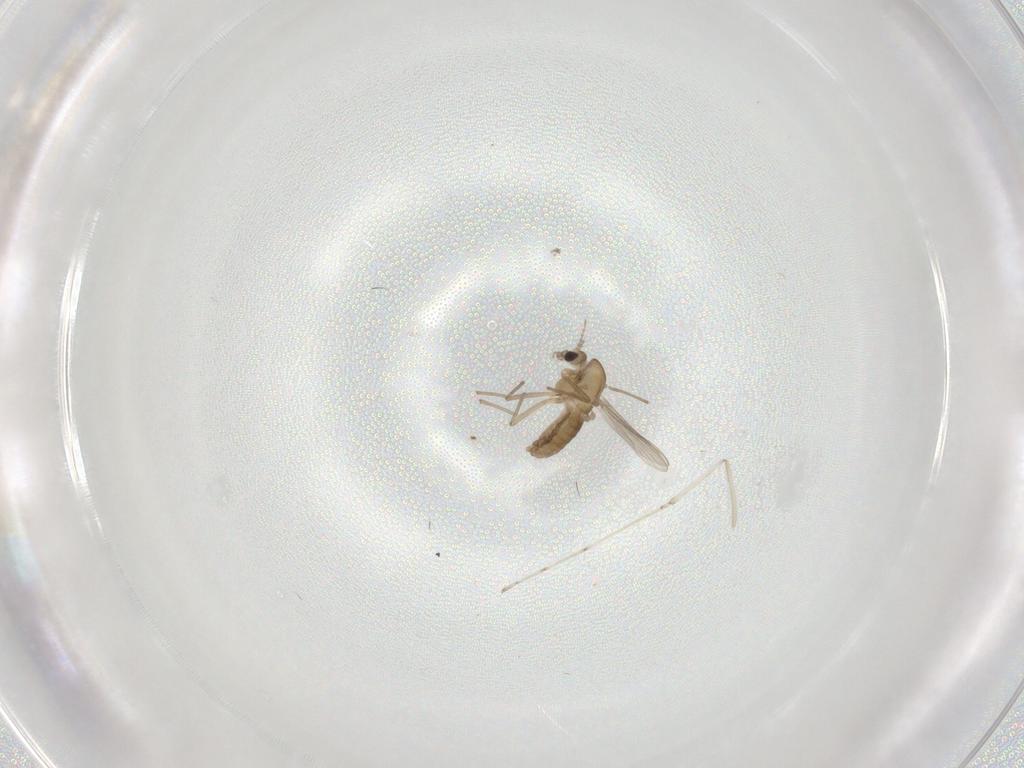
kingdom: Animalia
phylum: Arthropoda
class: Insecta
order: Diptera
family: Chironomidae
